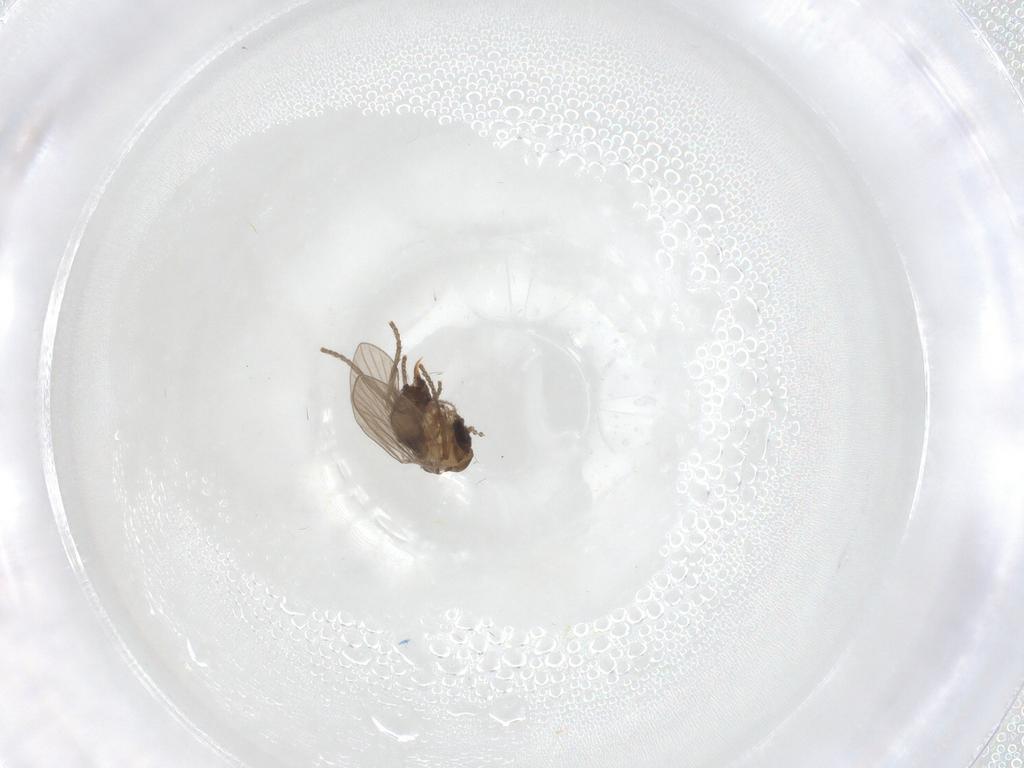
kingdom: Animalia
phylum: Arthropoda
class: Insecta
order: Diptera
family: Psychodidae
